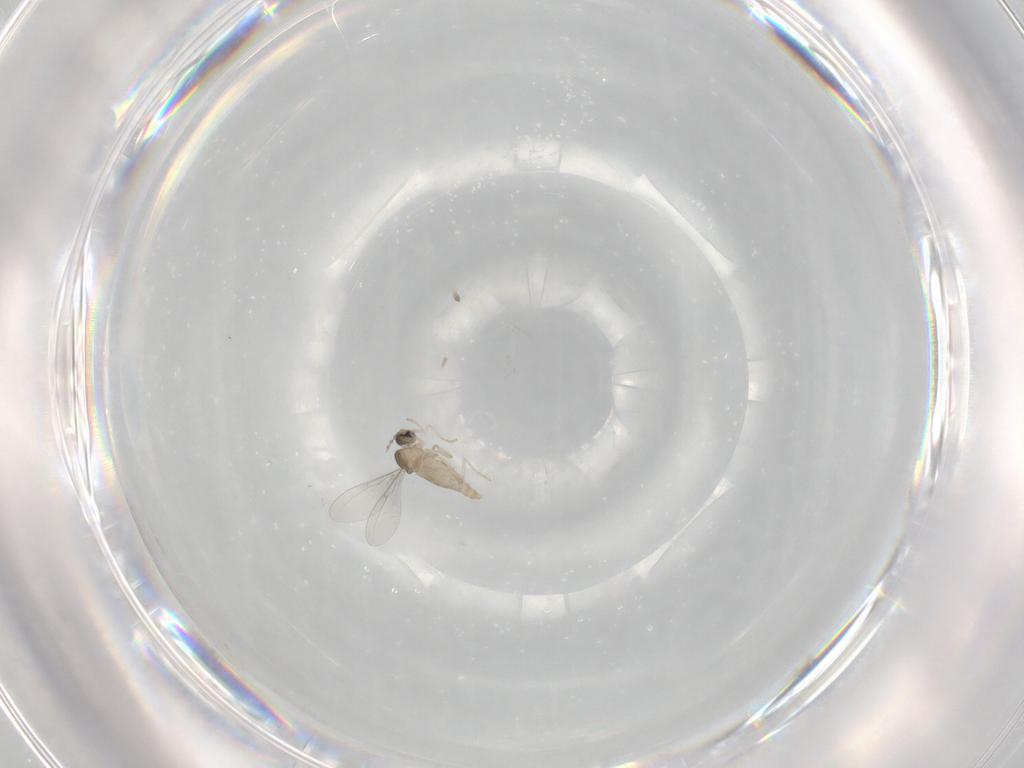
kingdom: Animalia
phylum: Arthropoda
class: Insecta
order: Diptera
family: Cecidomyiidae
